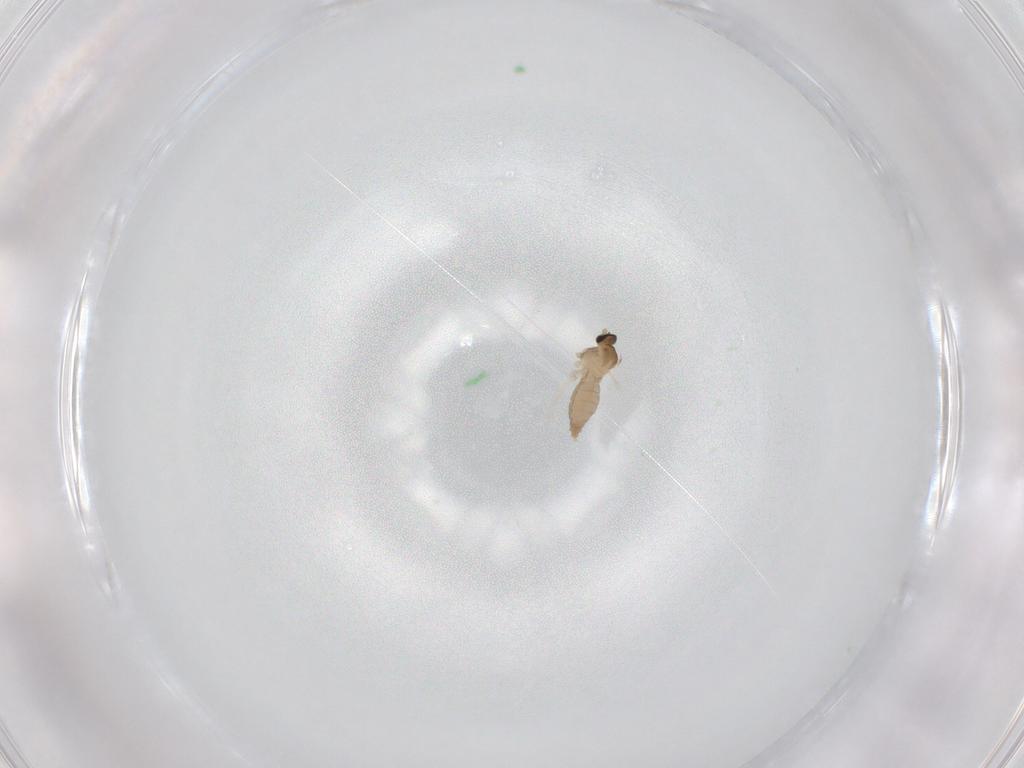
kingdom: Animalia
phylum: Arthropoda
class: Insecta
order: Diptera
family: Cecidomyiidae
